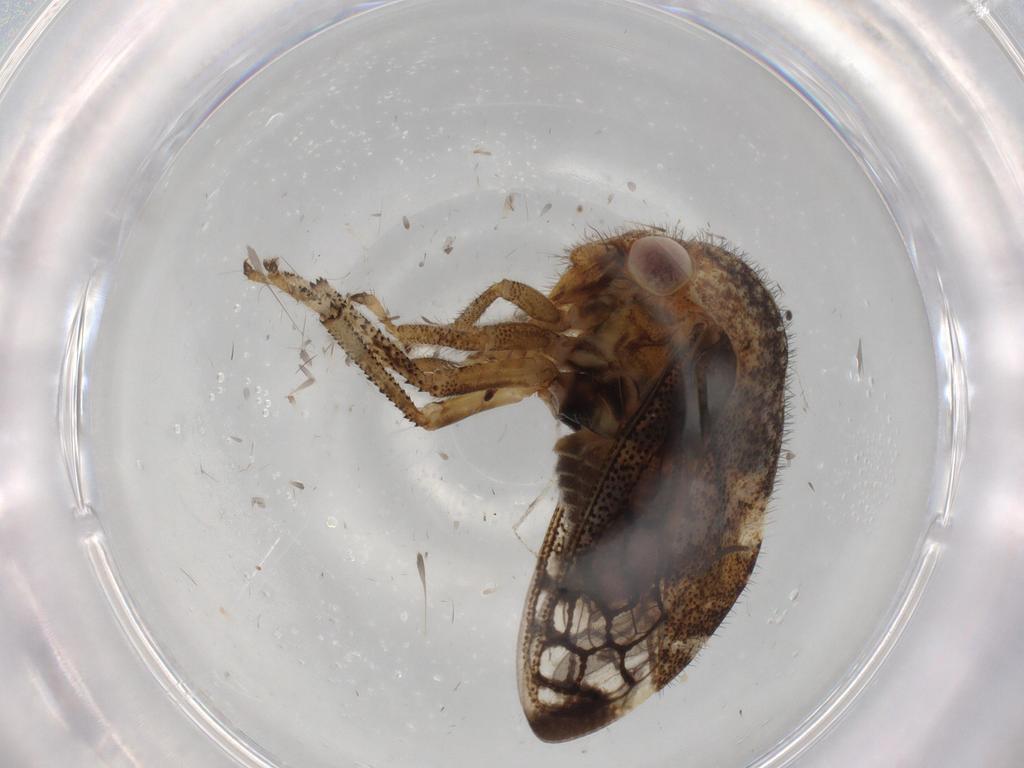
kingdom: Animalia
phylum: Arthropoda
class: Insecta
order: Hemiptera
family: Membracidae
